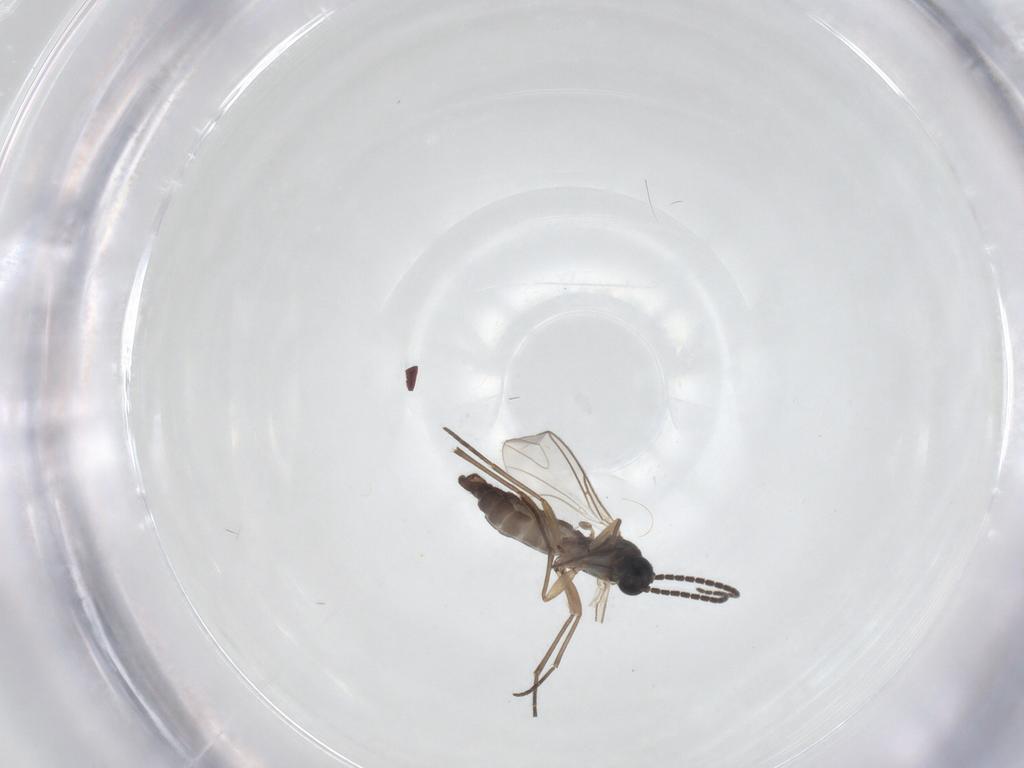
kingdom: Animalia
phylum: Arthropoda
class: Insecta
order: Diptera
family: Sciaridae
